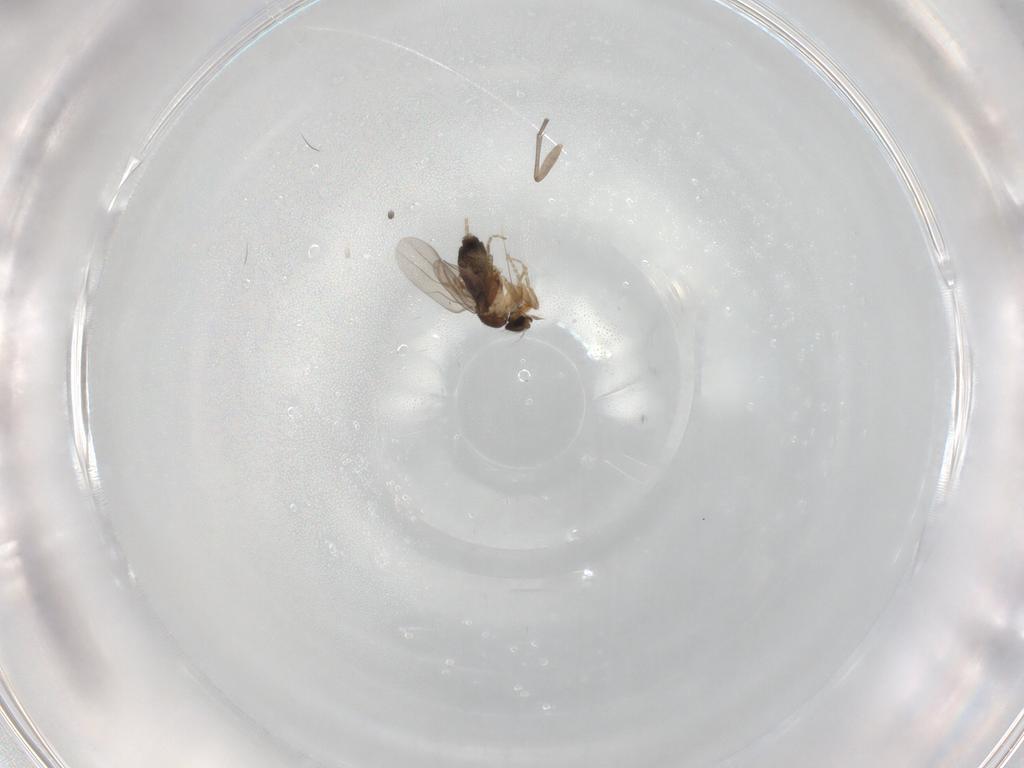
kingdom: Animalia
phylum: Arthropoda
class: Insecta
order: Diptera
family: Phoridae
